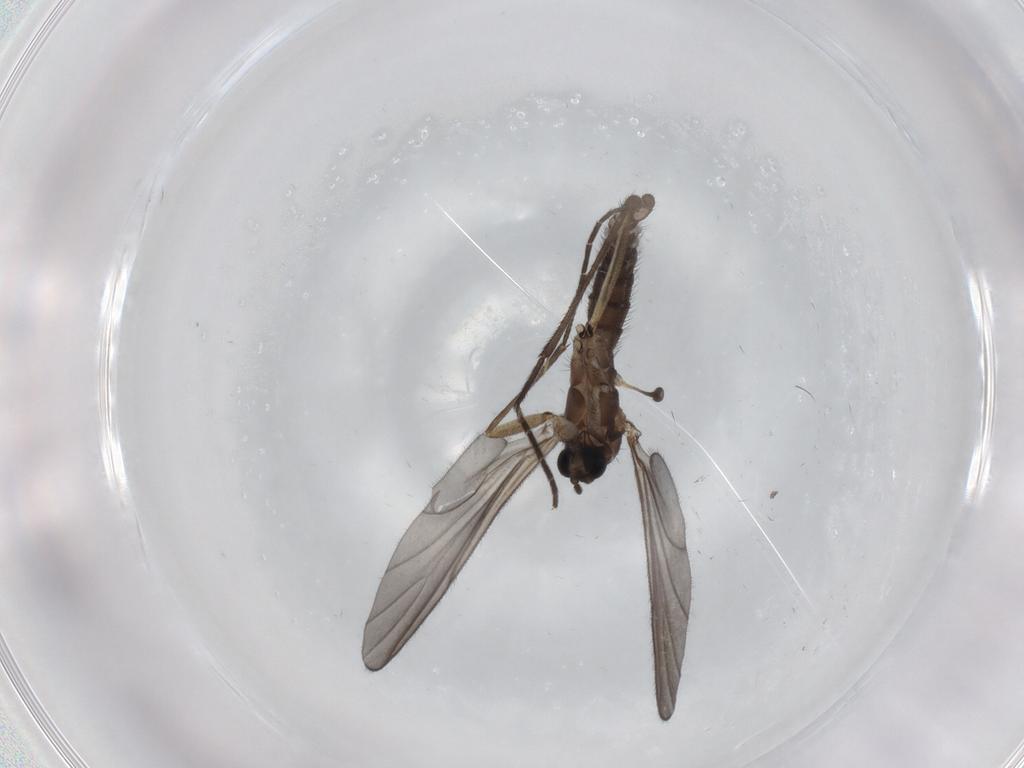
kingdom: Animalia
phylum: Arthropoda
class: Insecta
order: Diptera
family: Sciaridae
